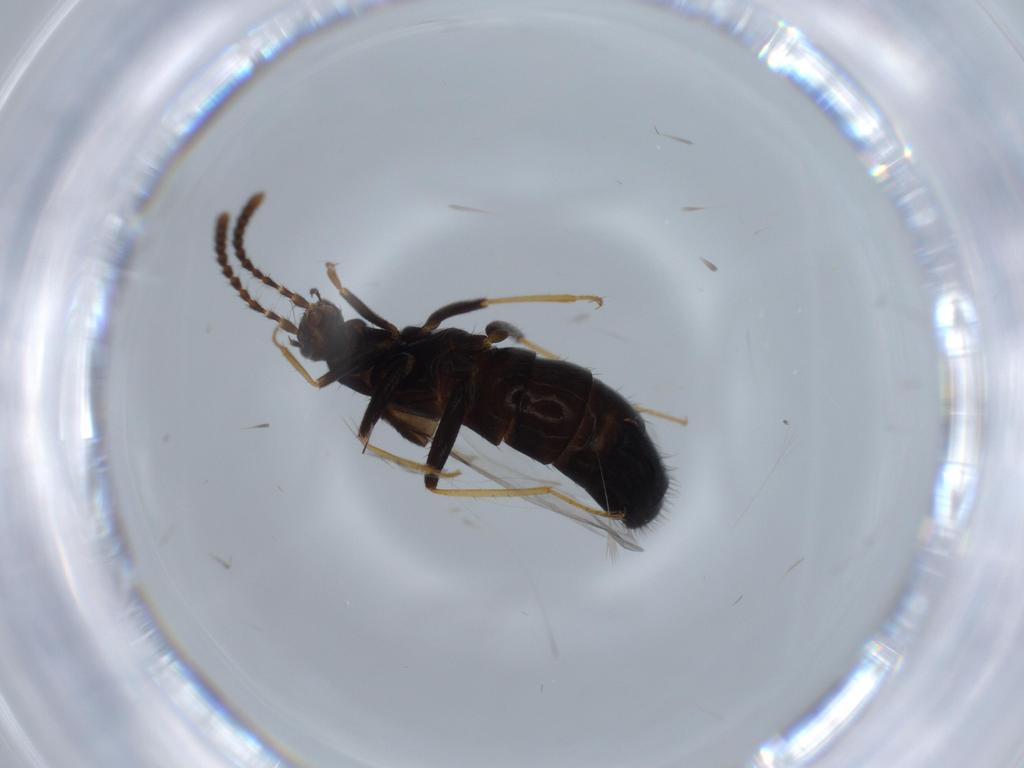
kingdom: Animalia
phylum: Arthropoda
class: Insecta
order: Coleoptera
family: Staphylinidae
